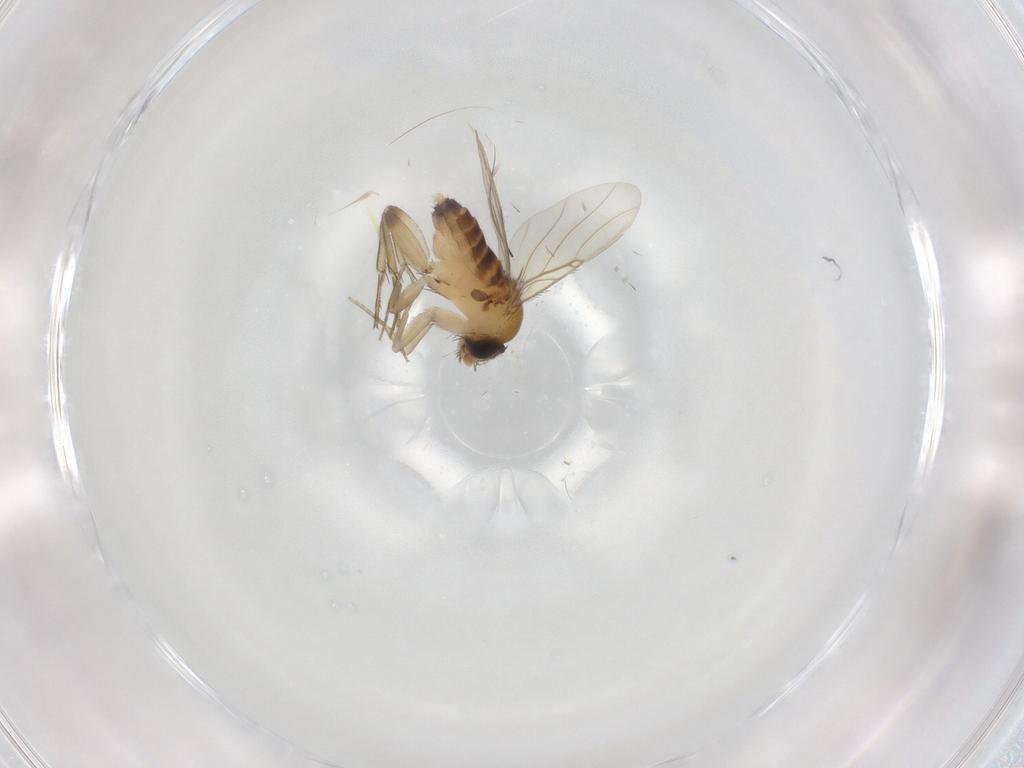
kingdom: Animalia
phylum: Arthropoda
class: Insecta
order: Diptera
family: Phoridae
